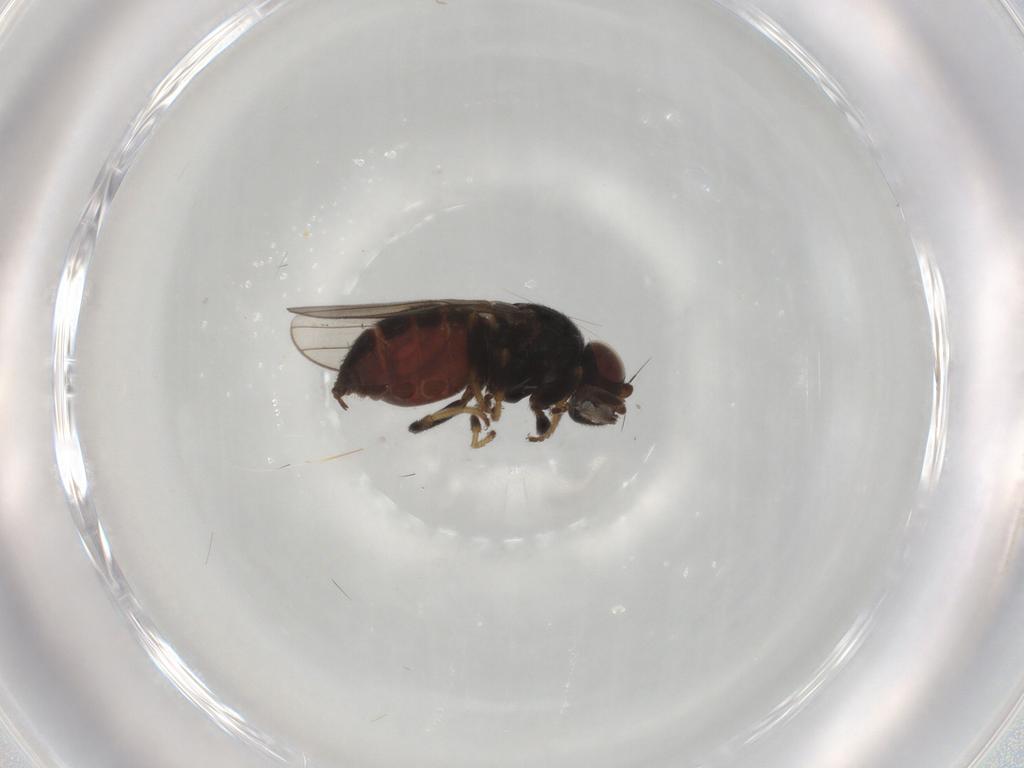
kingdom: Animalia
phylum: Arthropoda
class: Insecta
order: Diptera
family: Chloropidae
